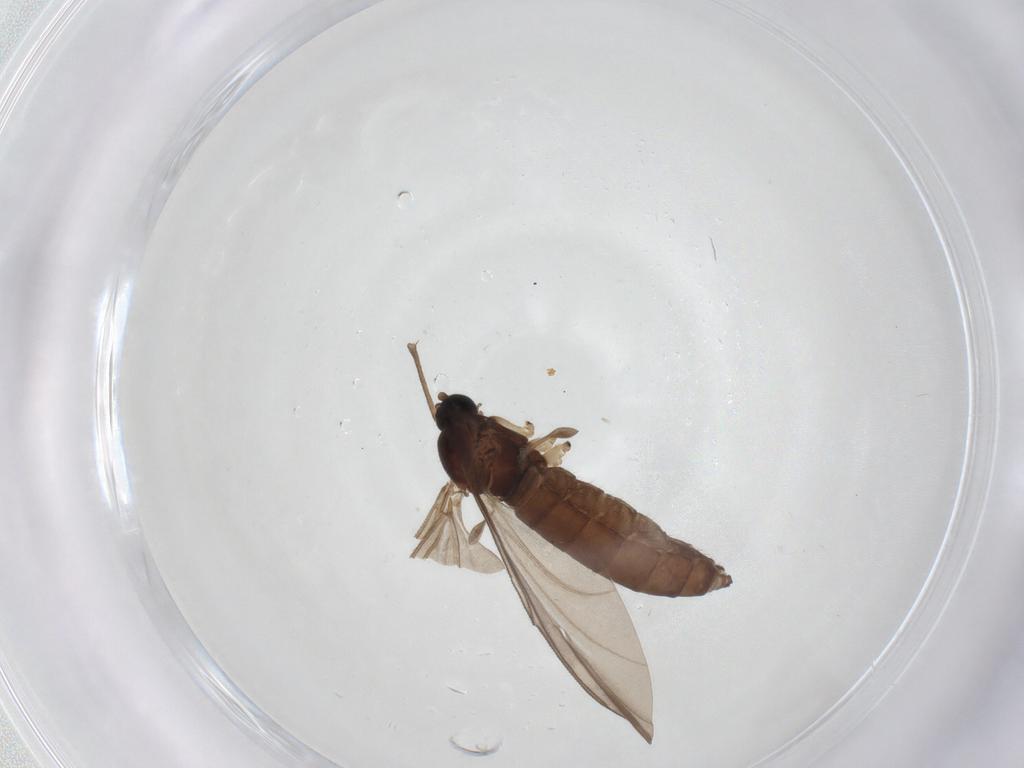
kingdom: Animalia
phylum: Arthropoda
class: Insecta
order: Diptera
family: Sciaridae
